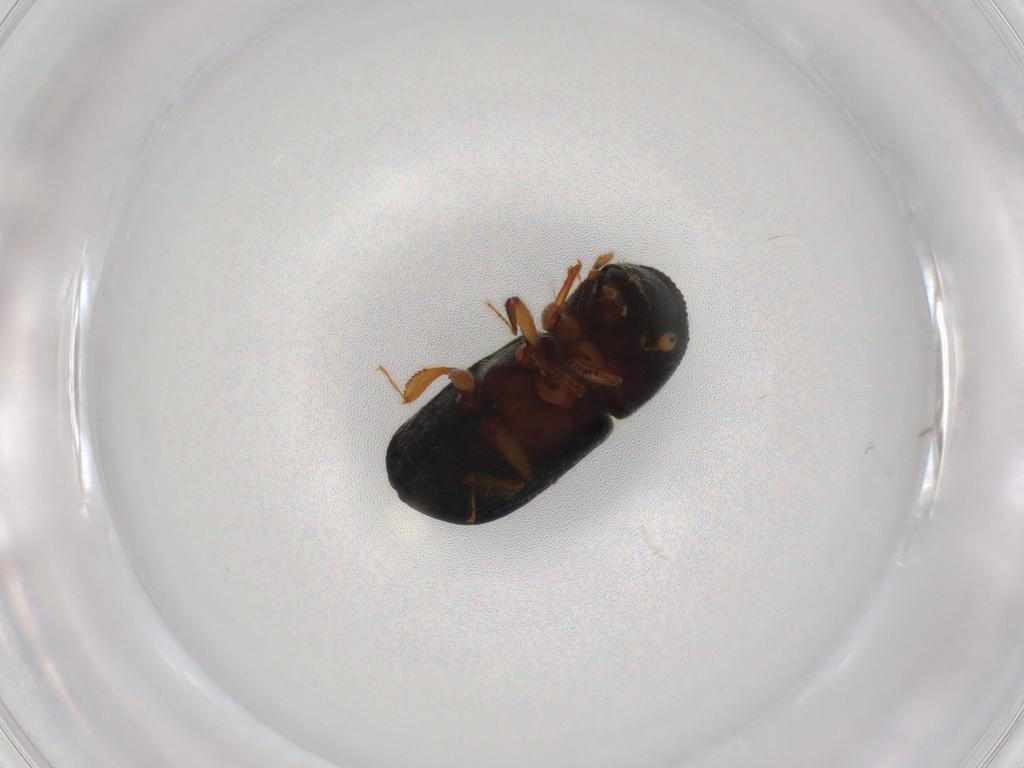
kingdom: Animalia
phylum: Arthropoda
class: Insecta
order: Coleoptera
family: Curculionidae
